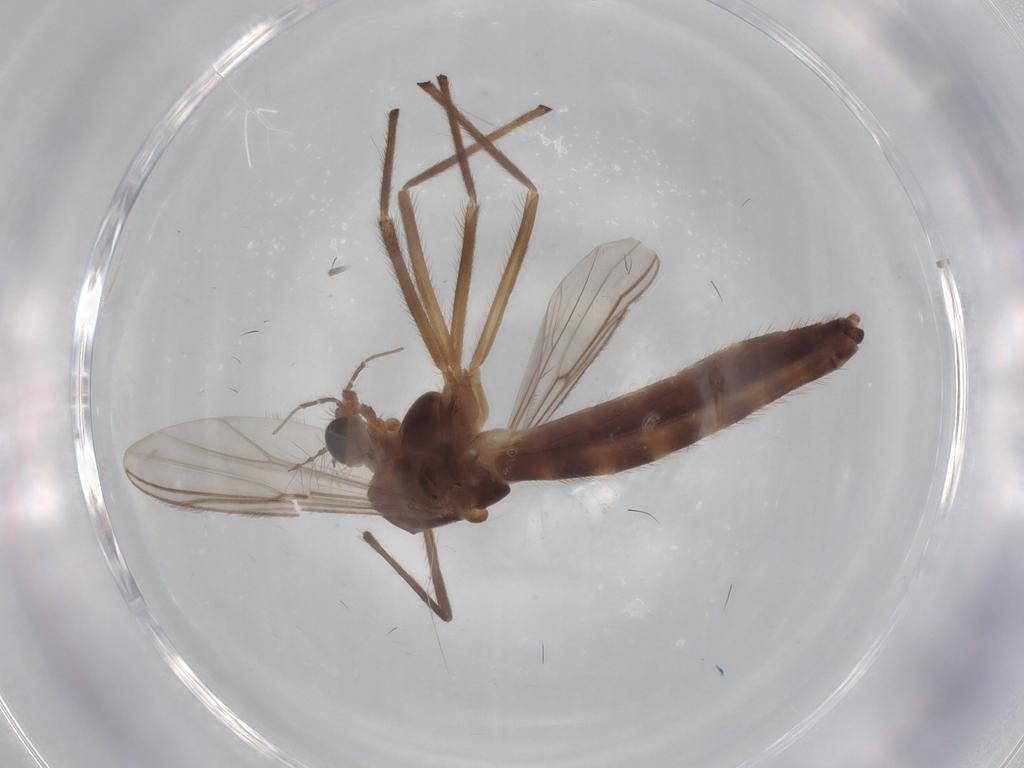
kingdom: Animalia
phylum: Arthropoda
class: Insecta
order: Diptera
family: Chironomidae
